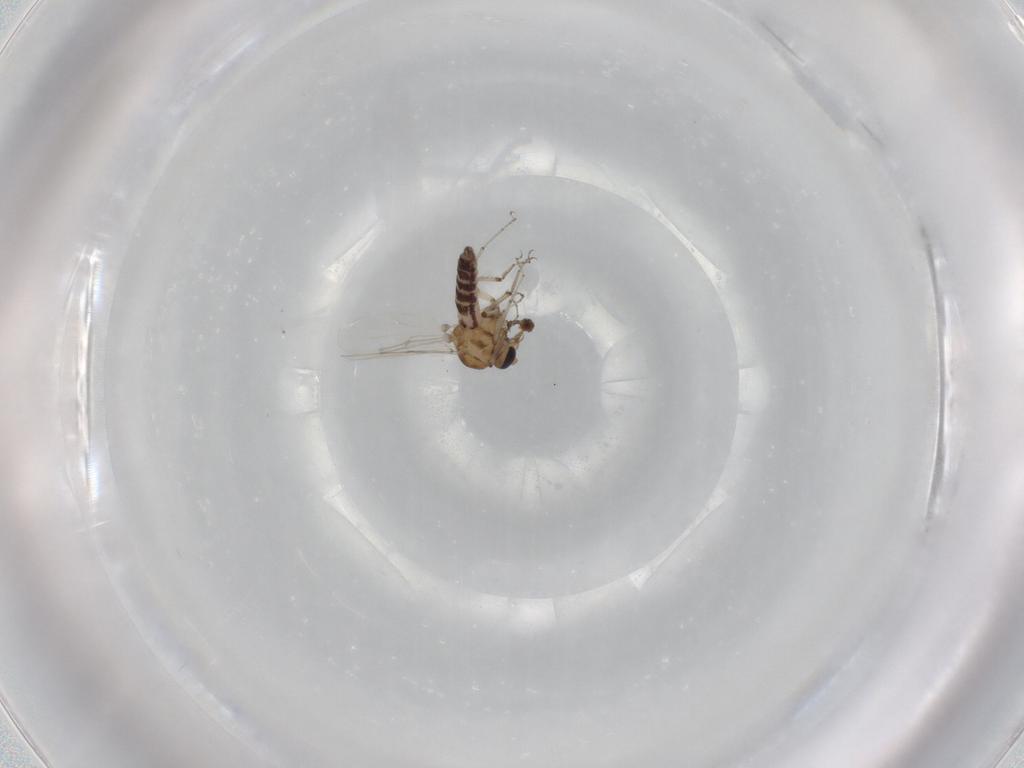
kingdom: Animalia
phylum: Arthropoda
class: Insecta
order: Diptera
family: Ceratopogonidae
